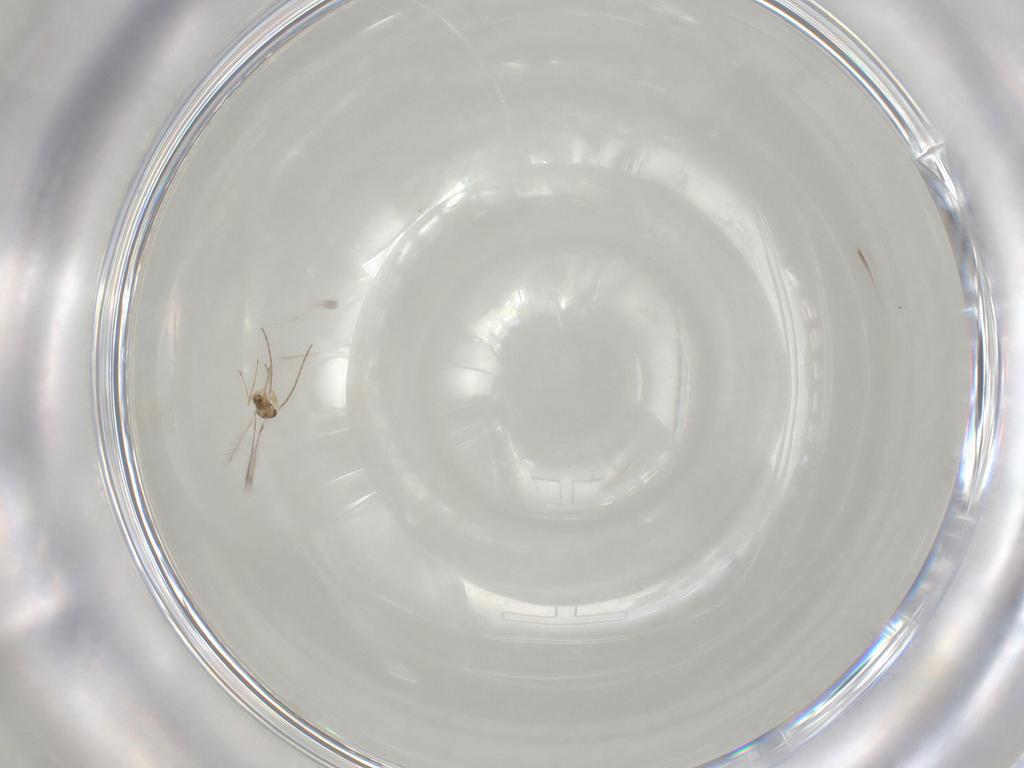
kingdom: Animalia
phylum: Arthropoda
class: Insecta
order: Hymenoptera
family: Mymaridae
